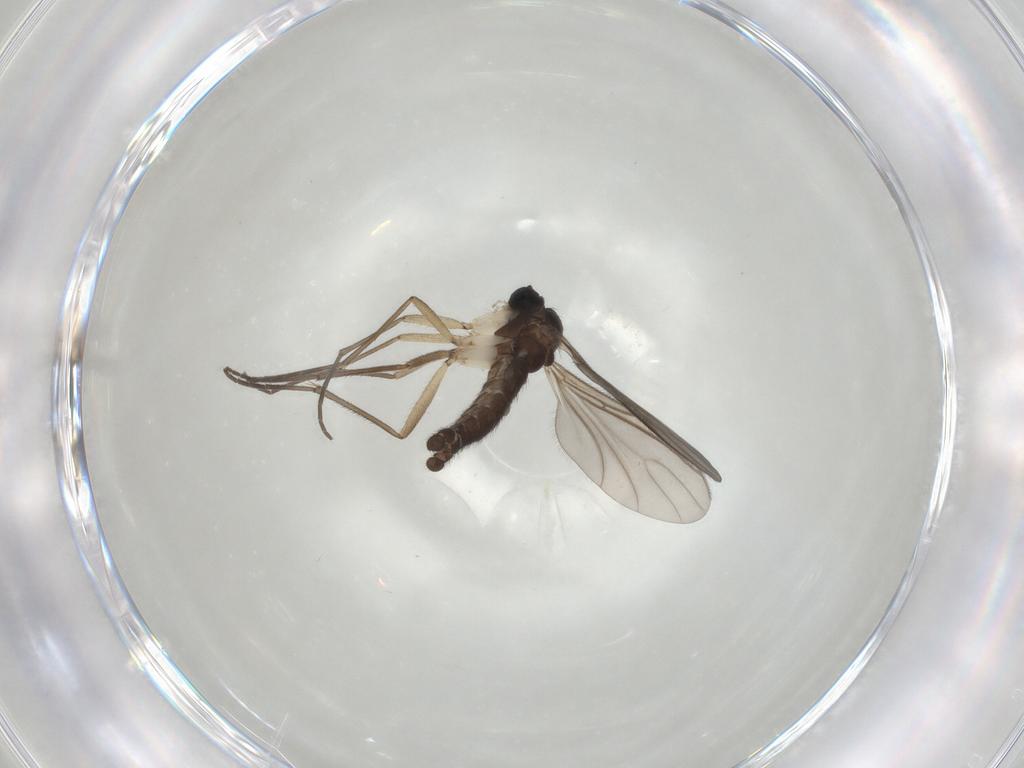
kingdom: Animalia
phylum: Arthropoda
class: Insecta
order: Diptera
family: Sciaridae
